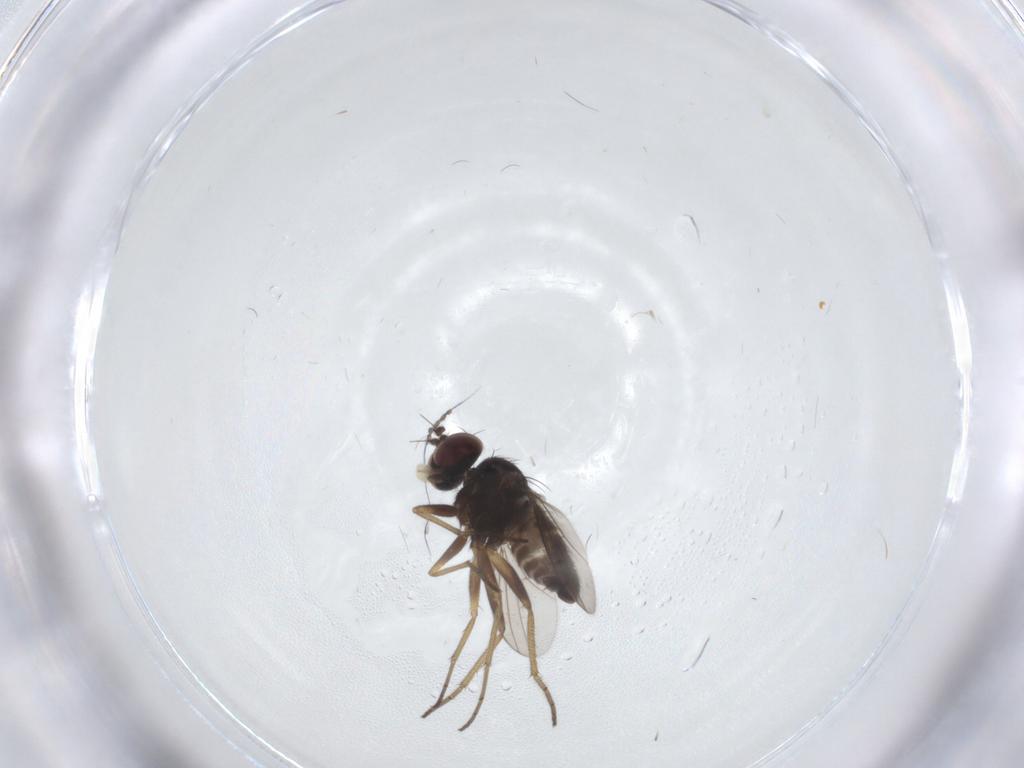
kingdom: Animalia
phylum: Arthropoda
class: Insecta
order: Diptera
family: Dolichopodidae
